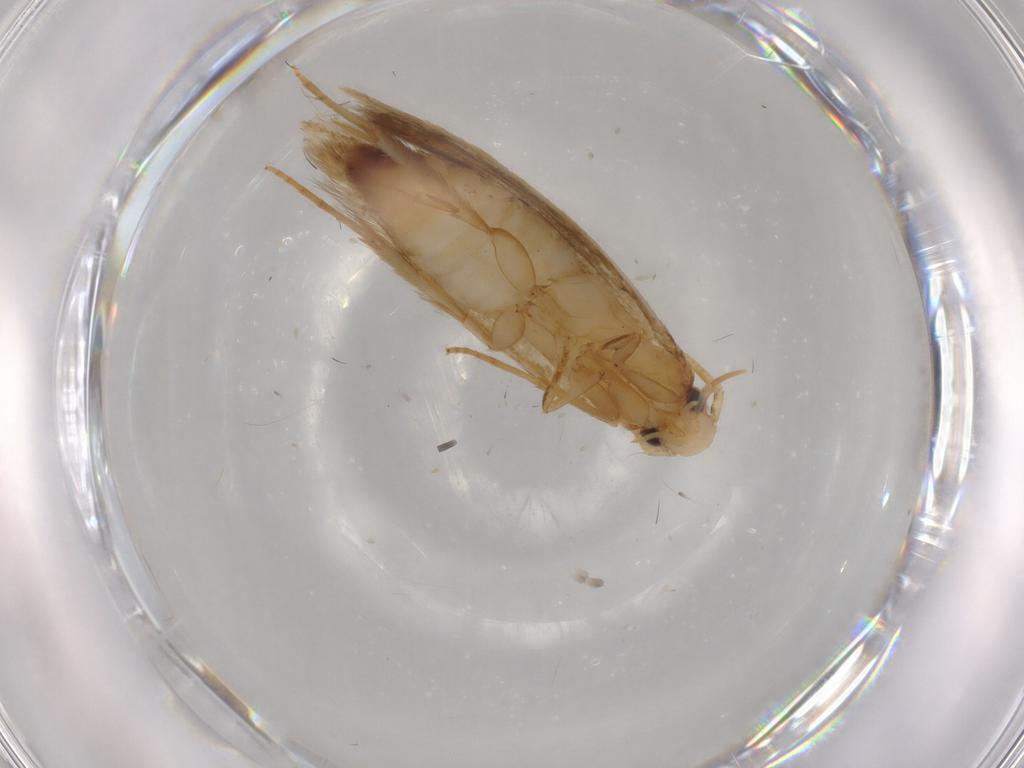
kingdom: Animalia
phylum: Arthropoda
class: Insecta
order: Lepidoptera
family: Tineidae
